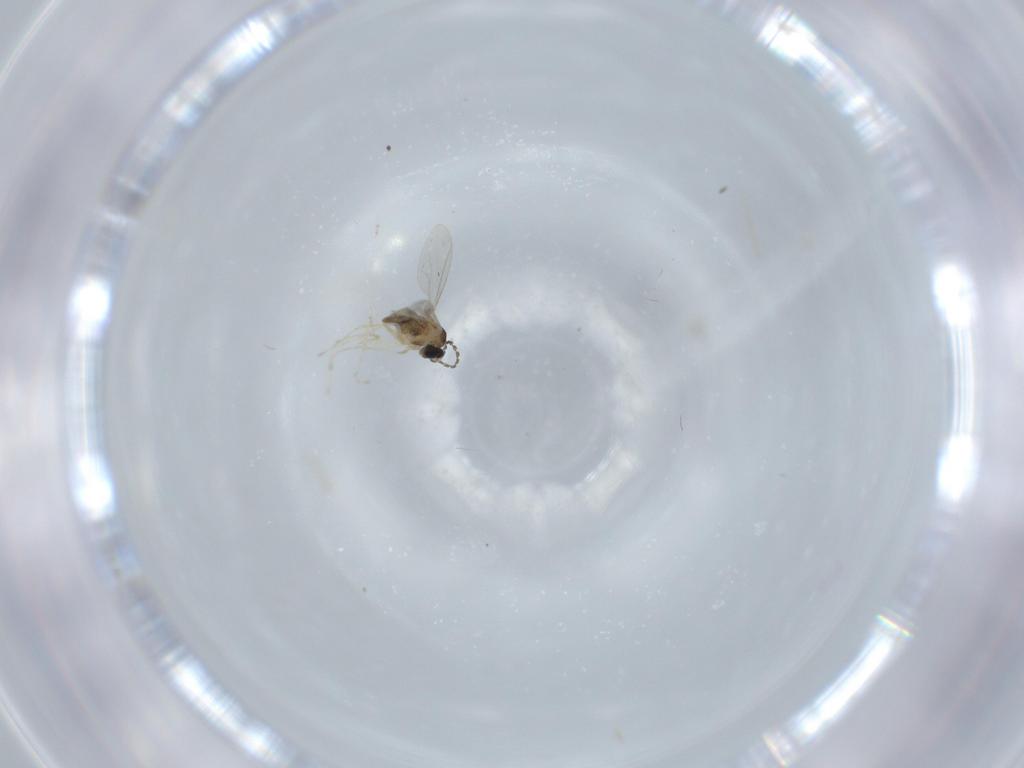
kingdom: Animalia
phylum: Arthropoda
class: Insecta
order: Diptera
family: Cecidomyiidae
